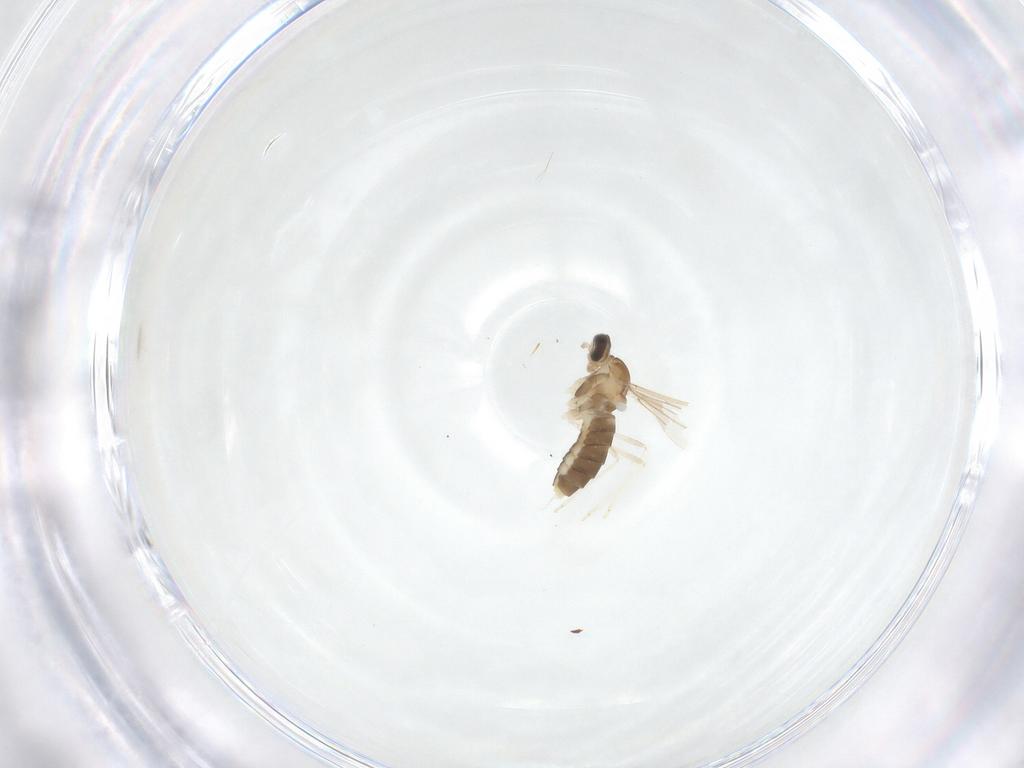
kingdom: Animalia
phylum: Arthropoda
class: Insecta
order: Diptera
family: Cecidomyiidae
